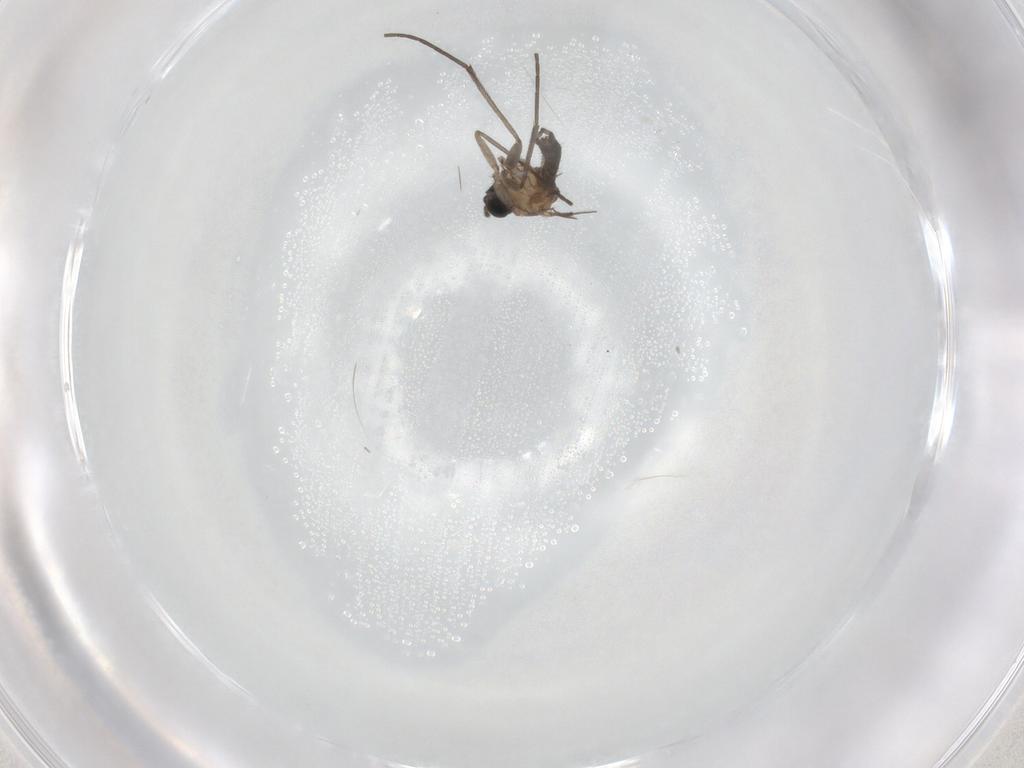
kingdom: Animalia
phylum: Arthropoda
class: Insecta
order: Diptera
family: Sciaridae
